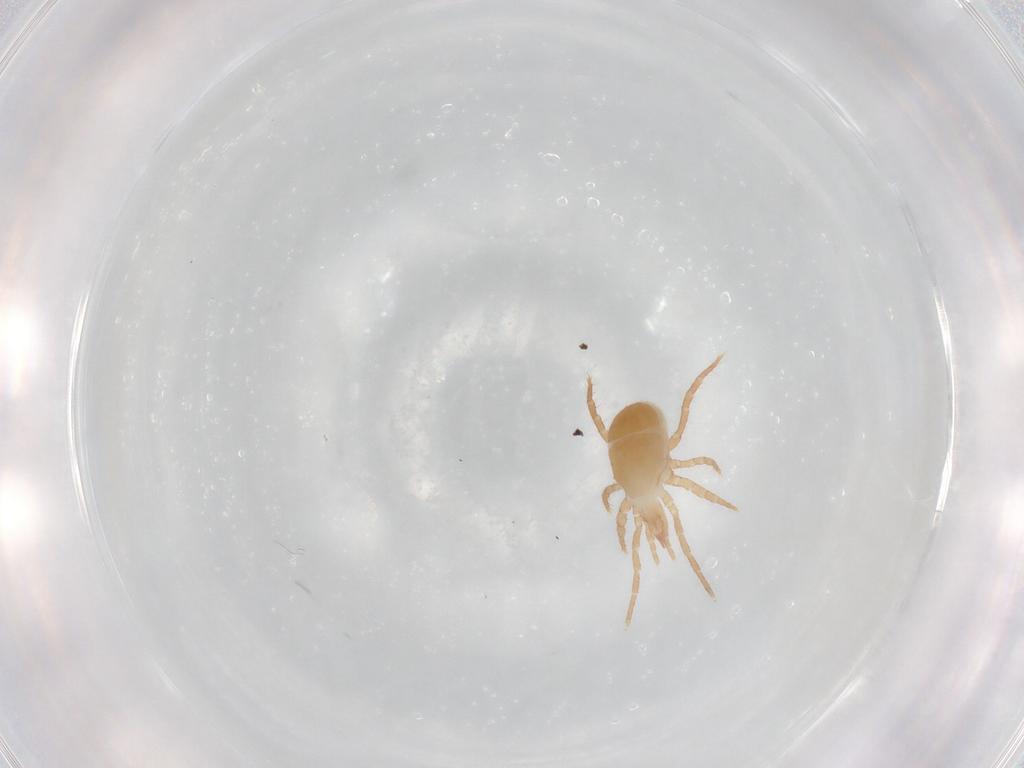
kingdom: Animalia
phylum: Arthropoda
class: Arachnida
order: Mesostigmata
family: Parasitidae
